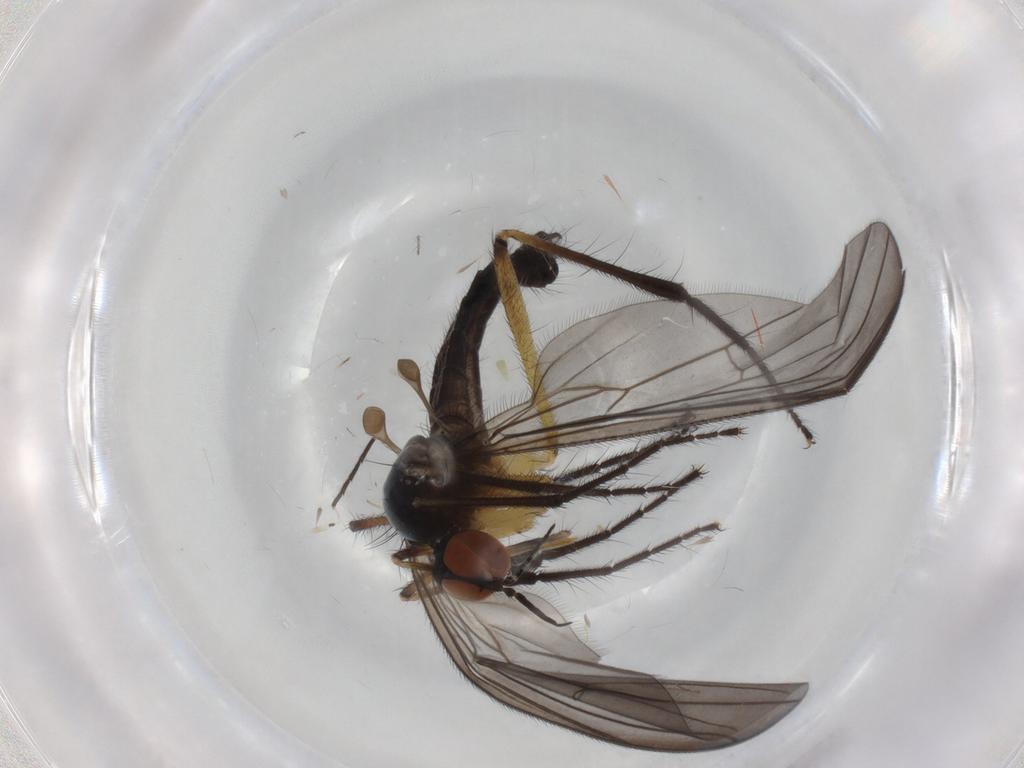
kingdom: Animalia
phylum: Arthropoda
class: Insecta
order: Diptera
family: Empididae
